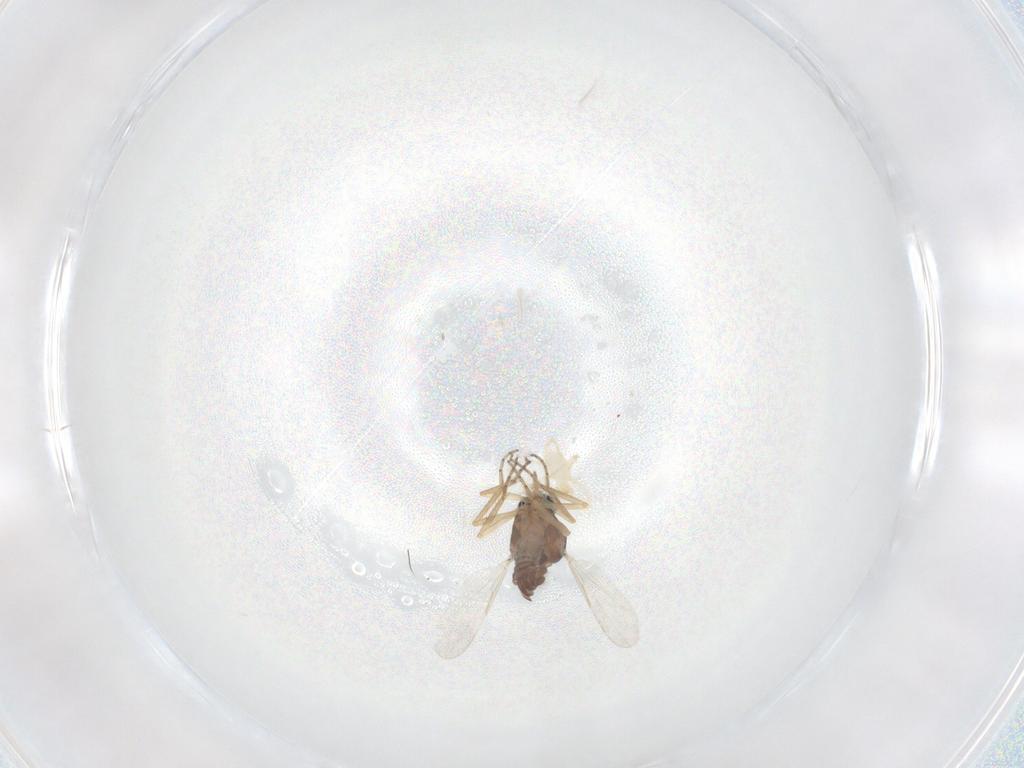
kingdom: Animalia
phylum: Arthropoda
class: Insecta
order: Diptera
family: Ceratopogonidae
